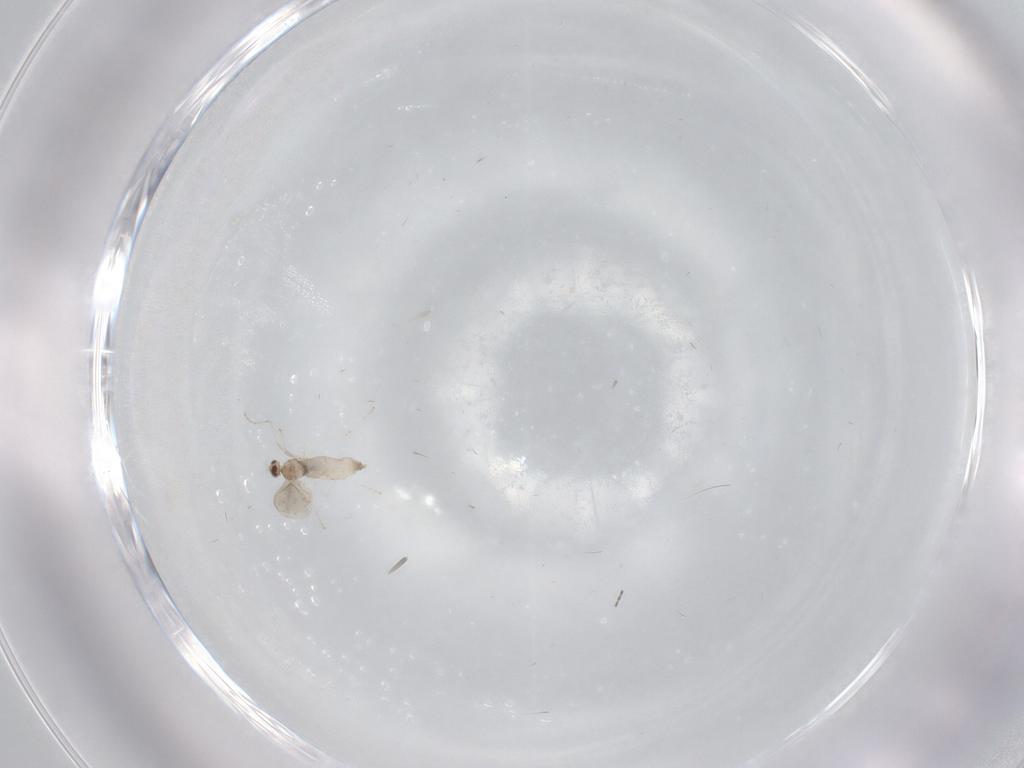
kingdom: Animalia
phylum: Arthropoda
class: Insecta
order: Diptera
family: Cecidomyiidae
